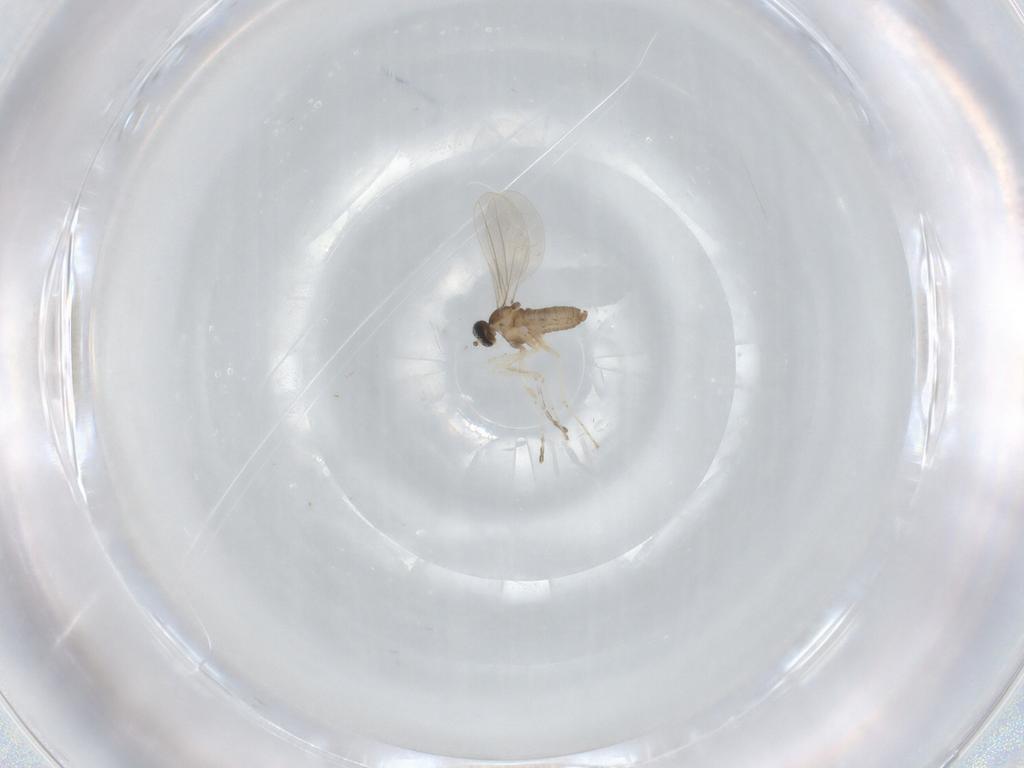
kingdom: Animalia
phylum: Arthropoda
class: Insecta
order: Diptera
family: Cecidomyiidae
